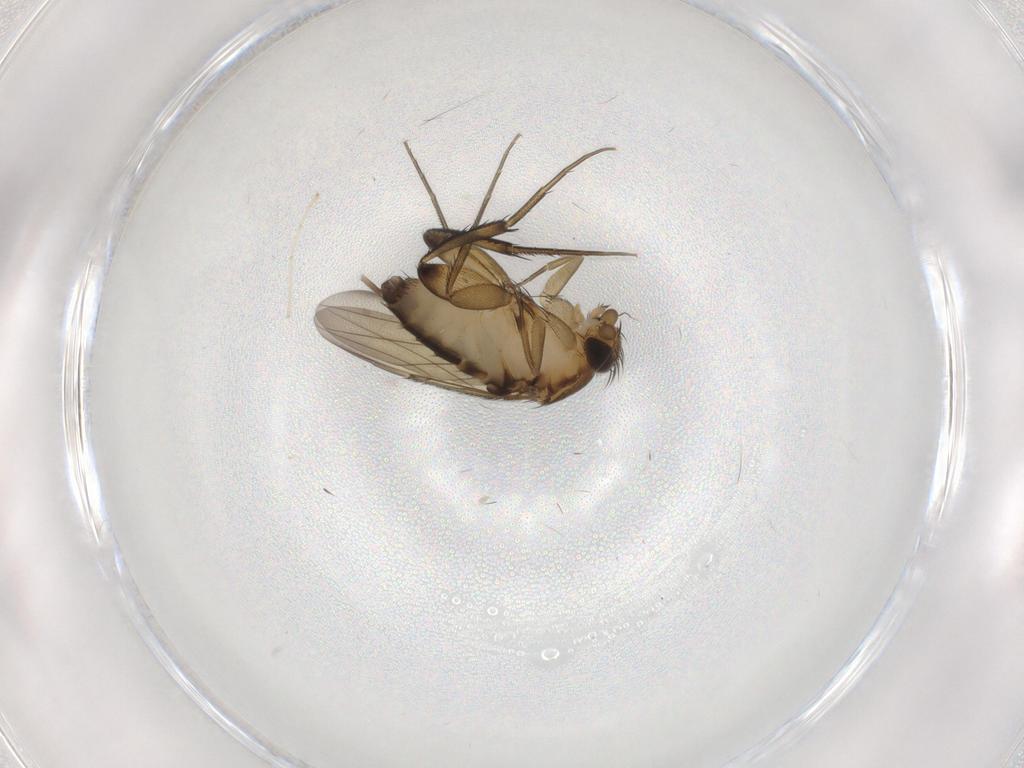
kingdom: Animalia
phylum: Arthropoda
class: Insecta
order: Diptera
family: Phoridae
